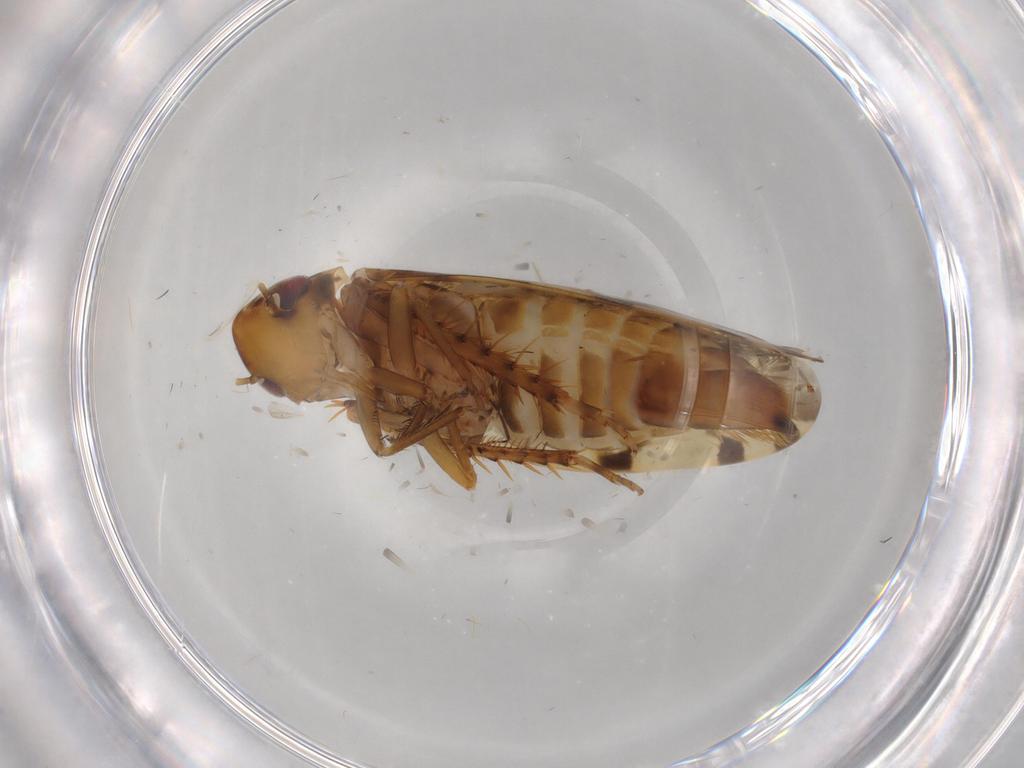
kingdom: Animalia
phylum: Arthropoda
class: Insecta
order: Hemiptera
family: Cicadellidae
